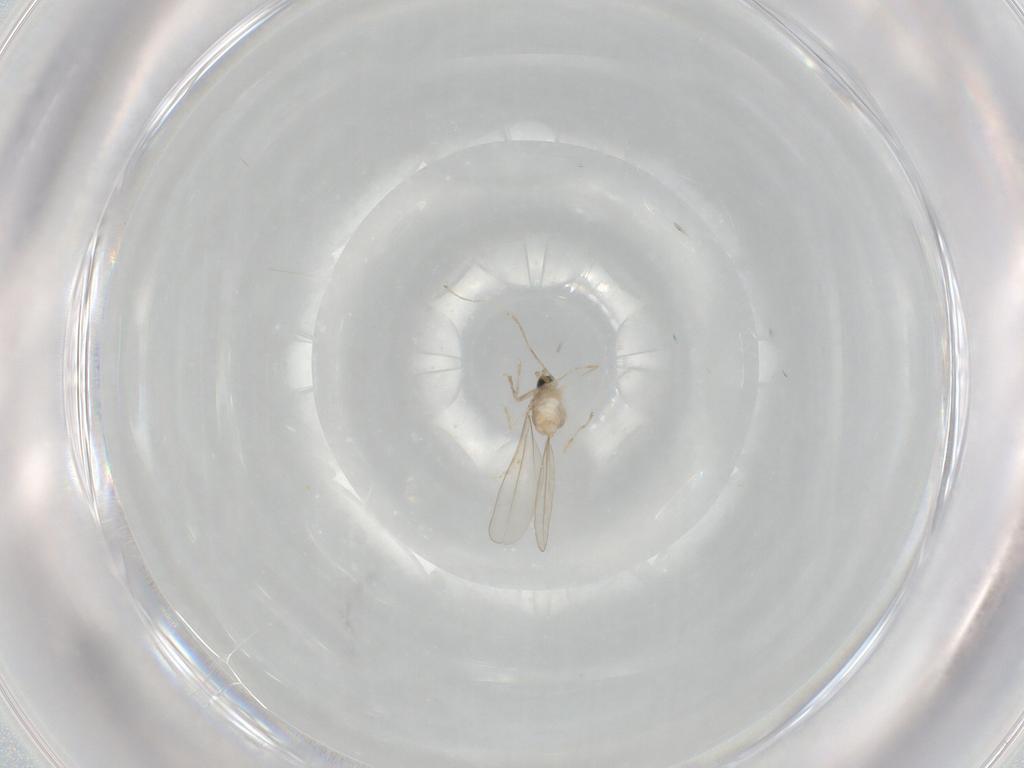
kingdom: Animalia
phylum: Arthropoda
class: Insecta
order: Diptera
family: Cecidomyiidae
